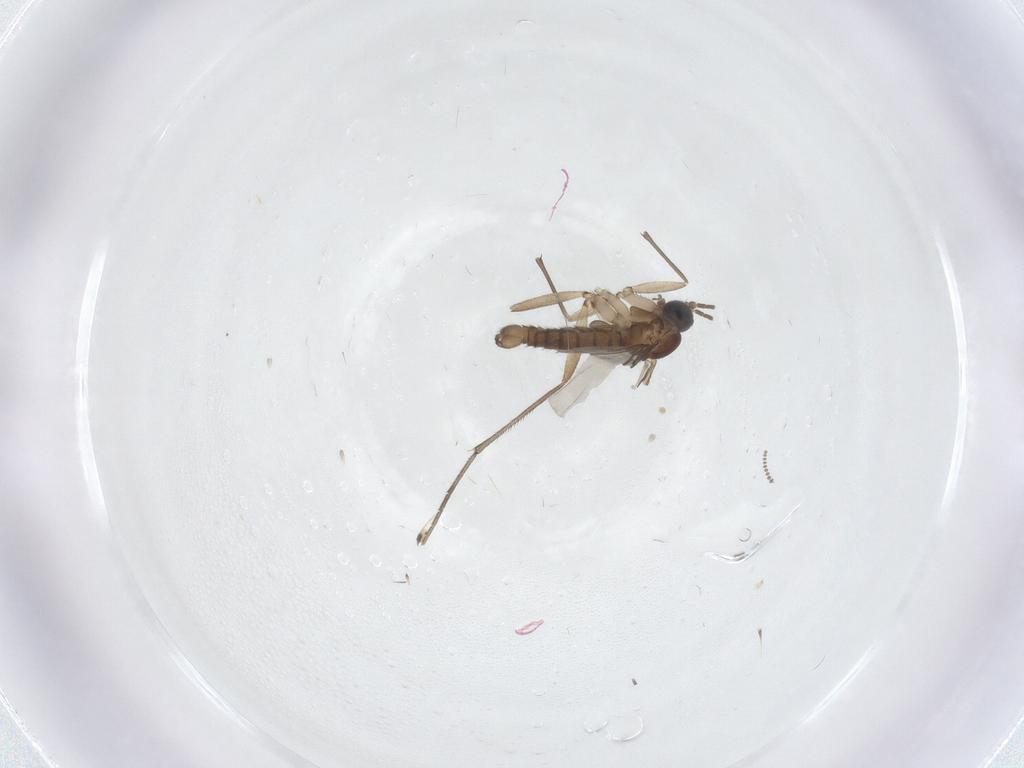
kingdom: Animalia
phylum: Arthropoda
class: Insecta
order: Diptera
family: Sciaridae
